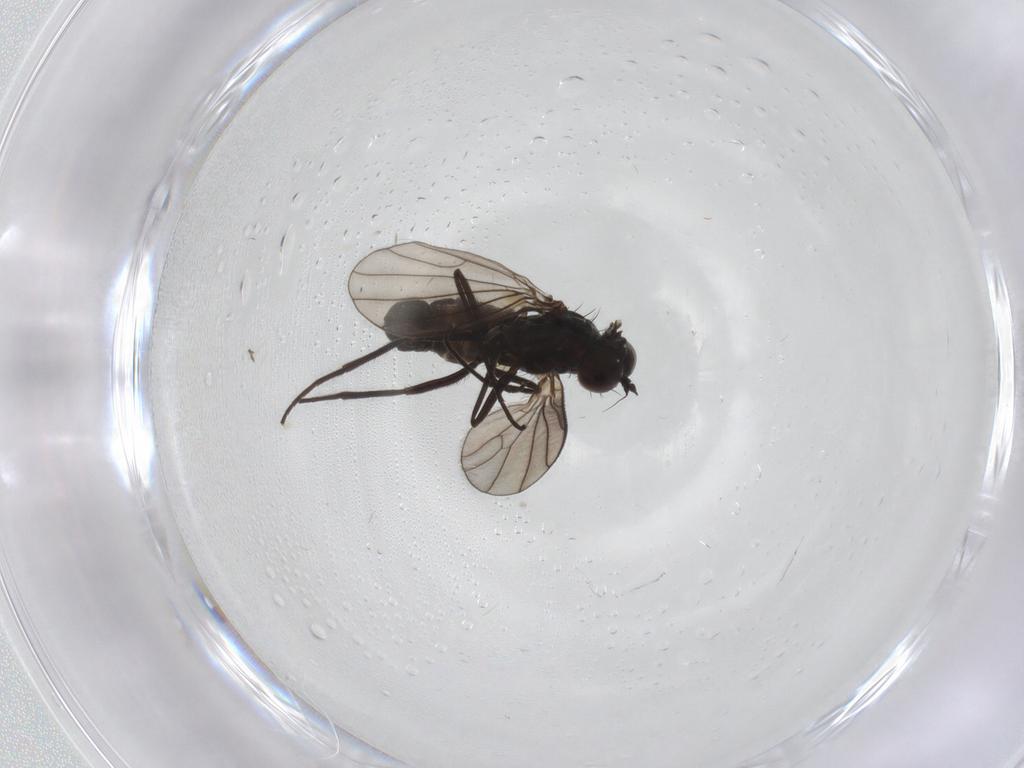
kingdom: Animalia
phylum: Arthropoda
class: Insecta
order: Diptera
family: Dolichopodidae
